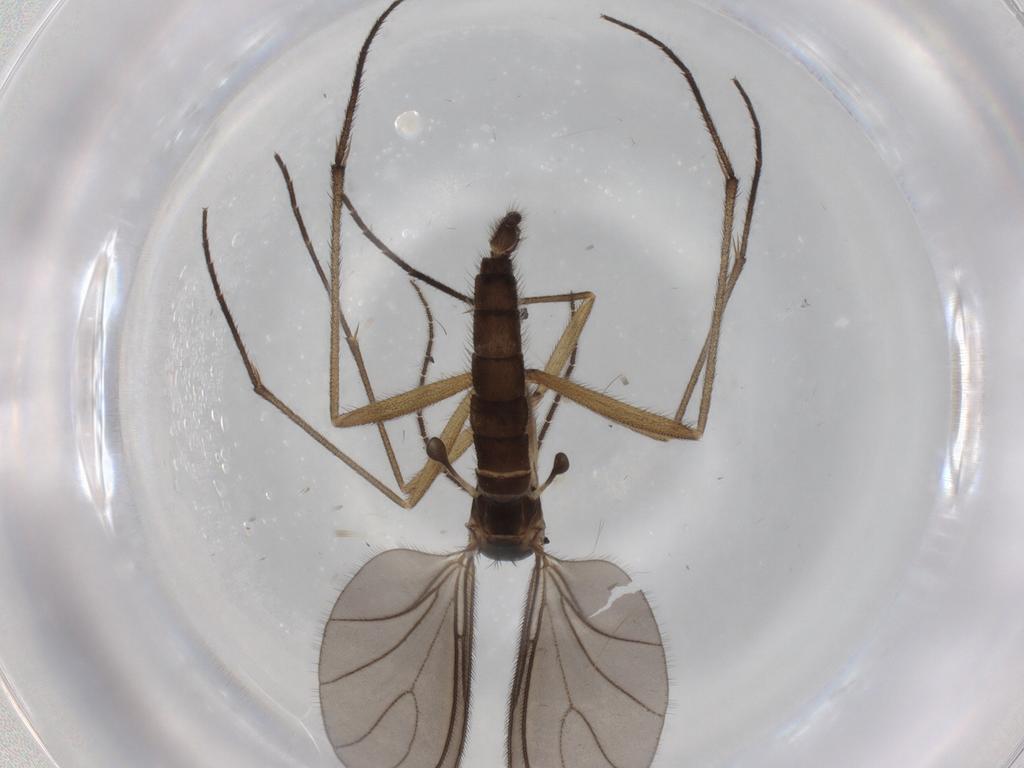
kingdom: Animalia
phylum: Arthropoda
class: Insecta
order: Diptera
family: Sciaridae
